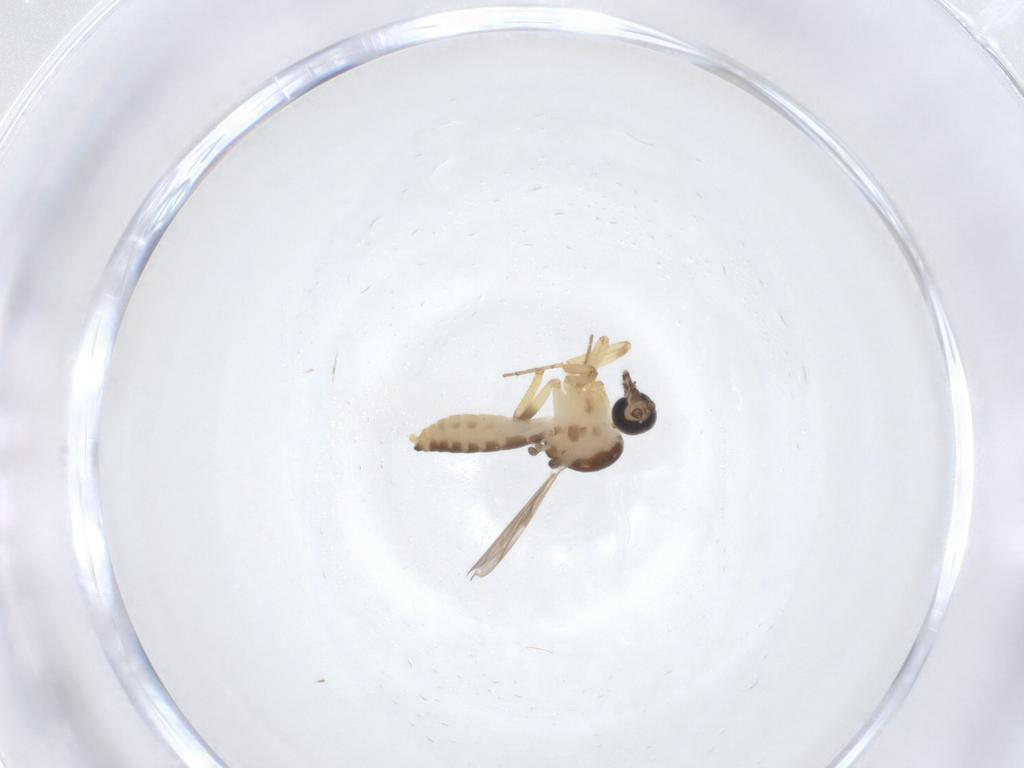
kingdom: Animalia
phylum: Arthropoda
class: Insecta
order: Diptera
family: Ceratopogonidae
